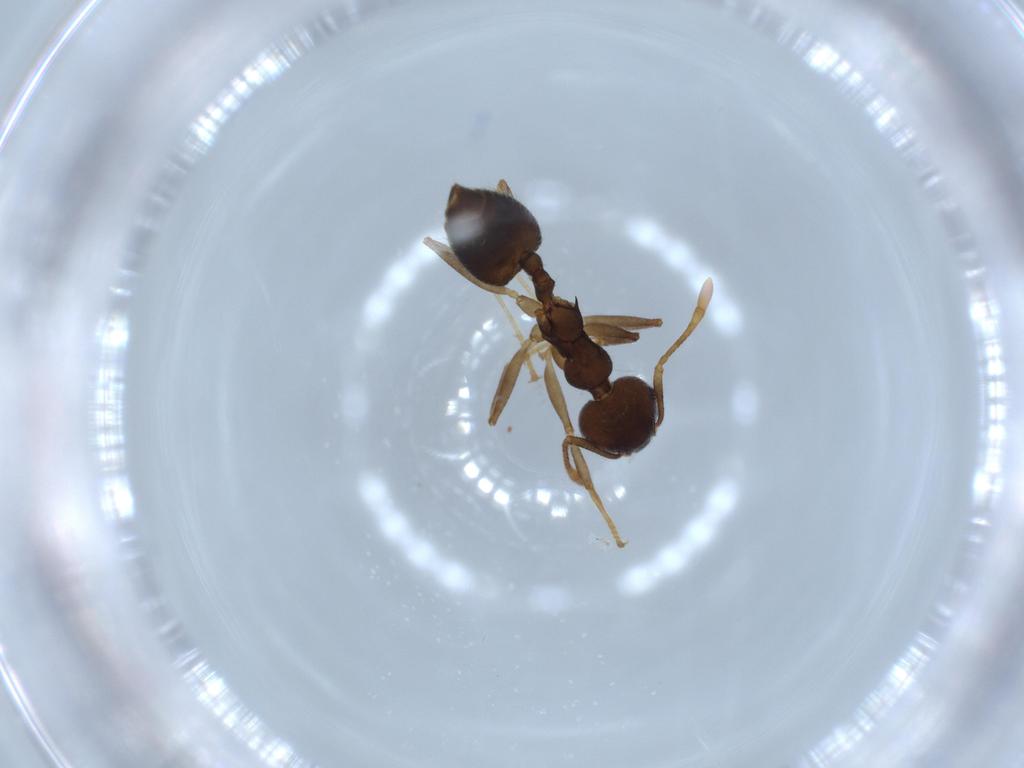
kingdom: Animalia
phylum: Arthropoda
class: Insecta
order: Hymenoptera
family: Formicidae
